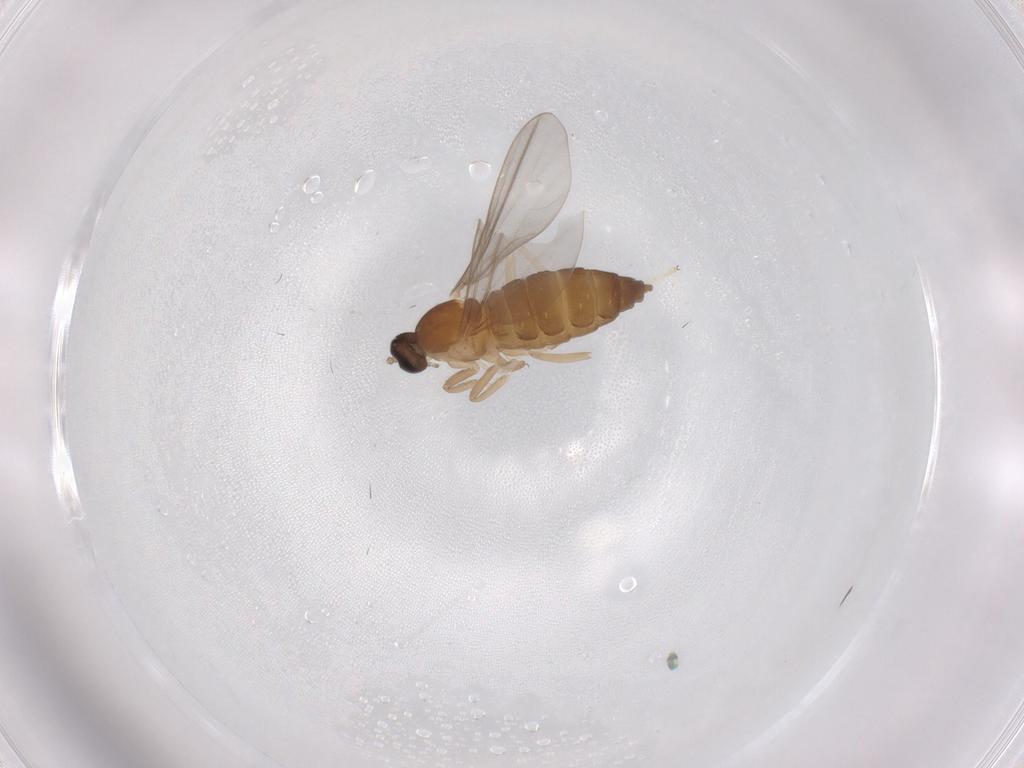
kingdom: Animalia
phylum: Arthropoda
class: Insecta
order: Diptera
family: Cecidomyiidae
